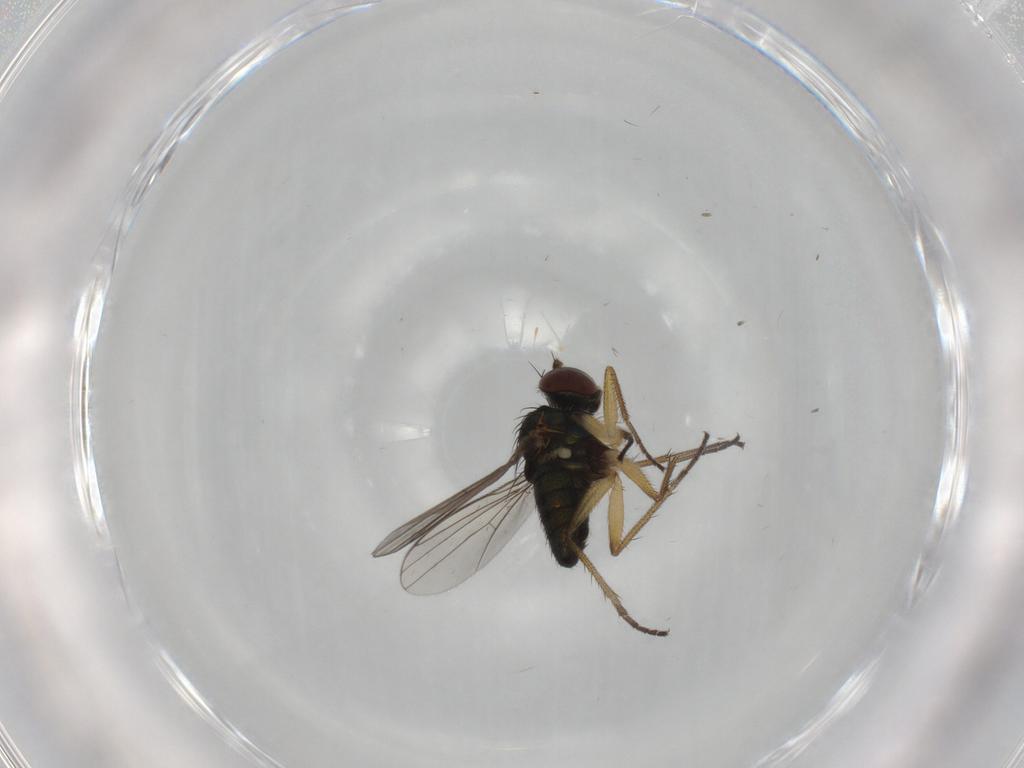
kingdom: Animalia
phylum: Arthropoda
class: Insecta
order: Diptera
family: Dolichopodidae
